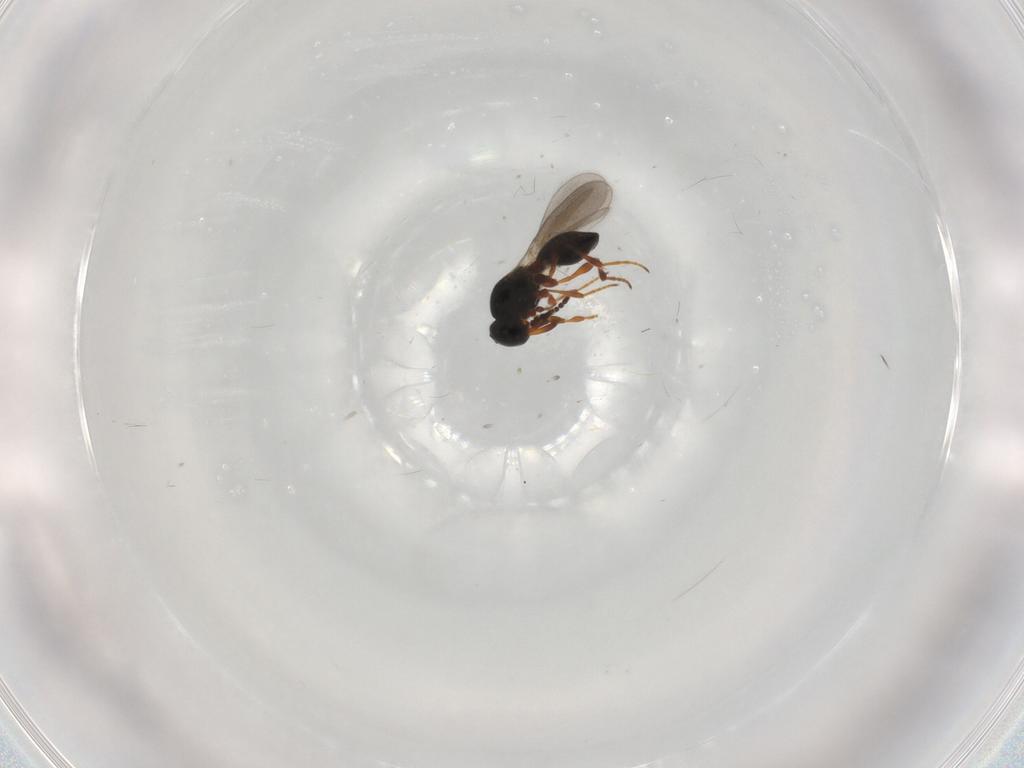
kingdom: Animalia
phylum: Arthropoda
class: Insecta
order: Hymenoptera
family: Platygastridae
